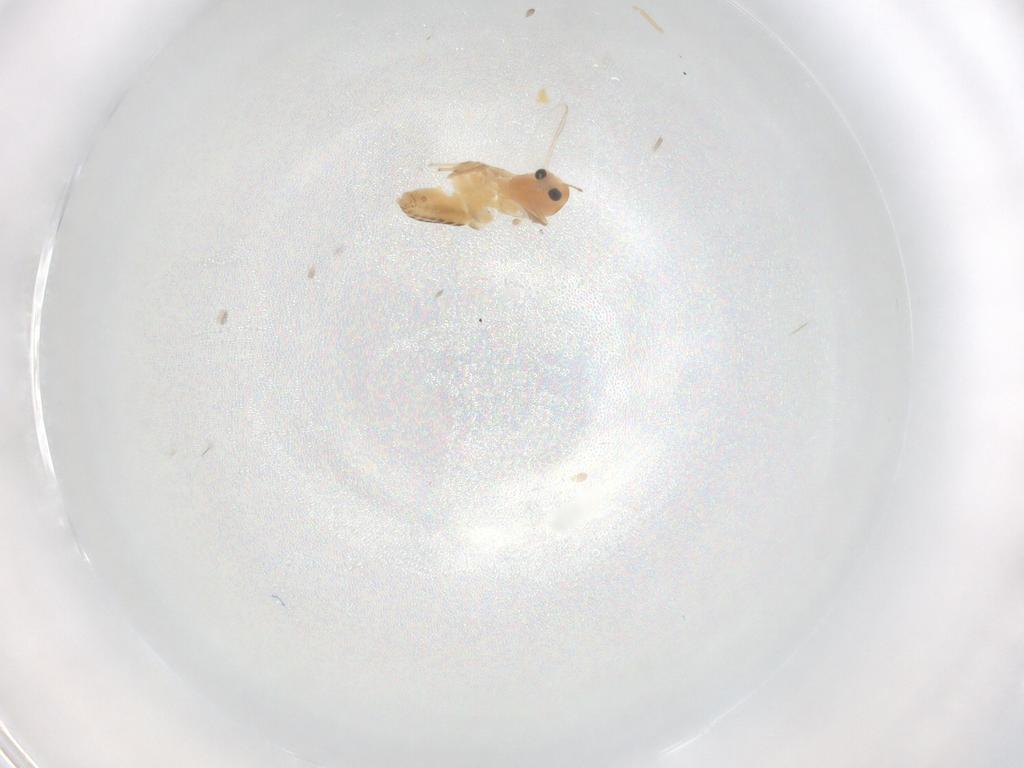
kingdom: Animalia
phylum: Arthropoda
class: Insecta
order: Diptera
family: Chironomidae
